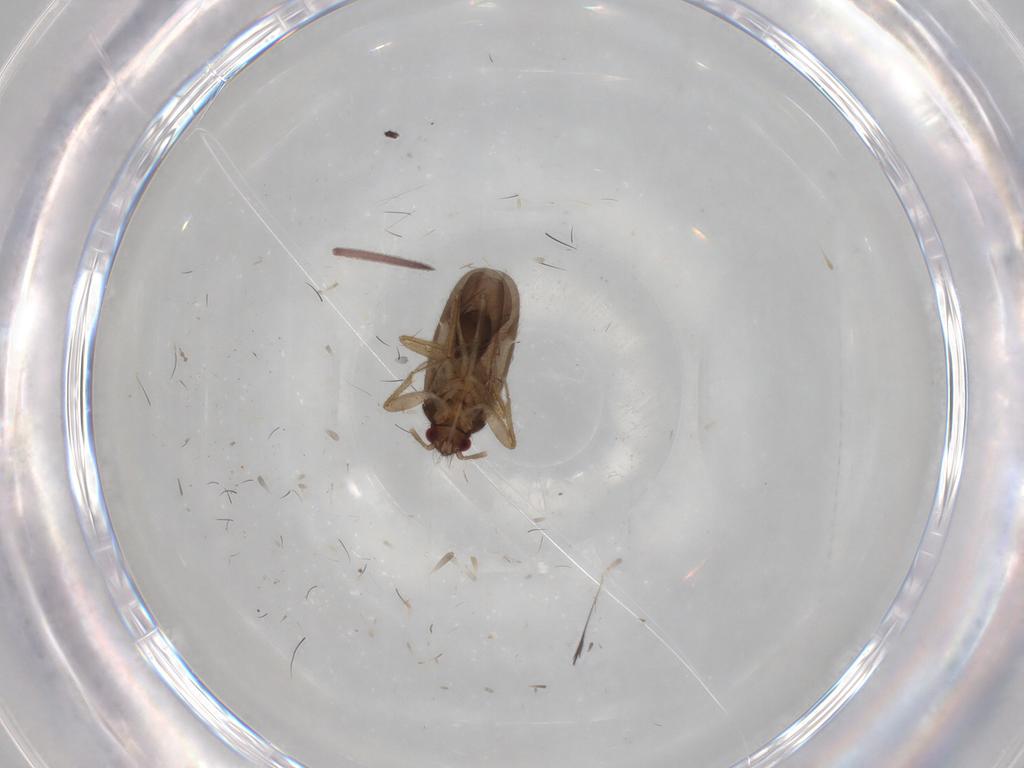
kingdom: Animalia
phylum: Arthropoda
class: Insecta
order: Hemiptera
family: Ceratocombidae
